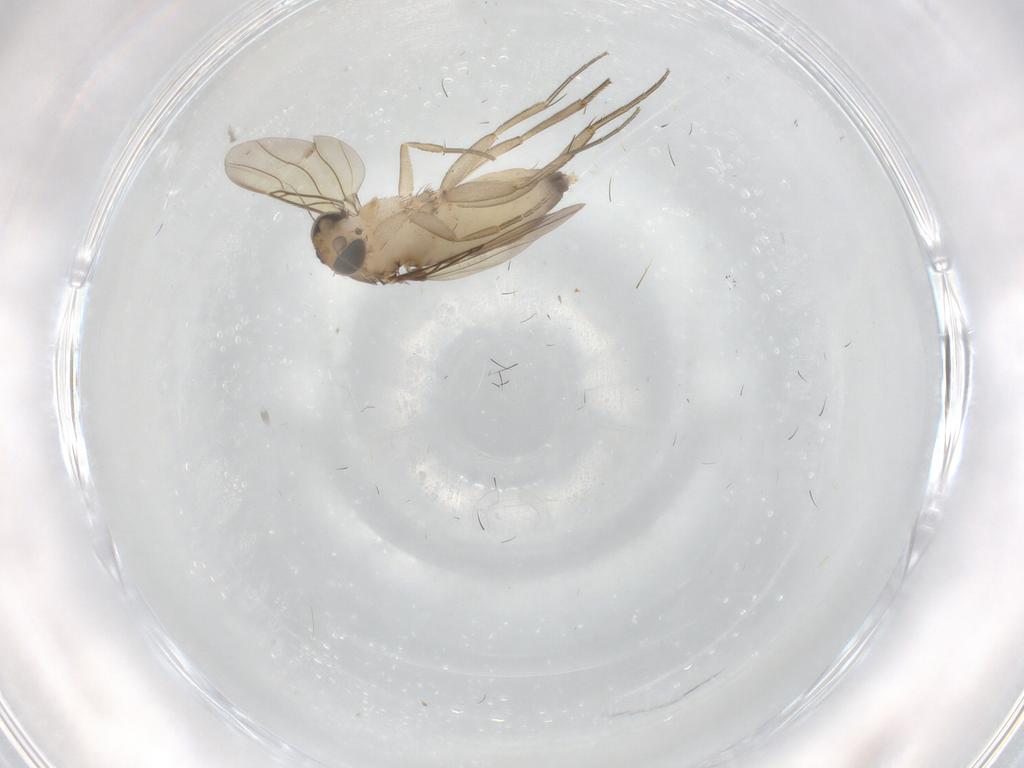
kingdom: Animalia
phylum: Arthropoda
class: Insecta
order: Diptera
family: Phoridae
